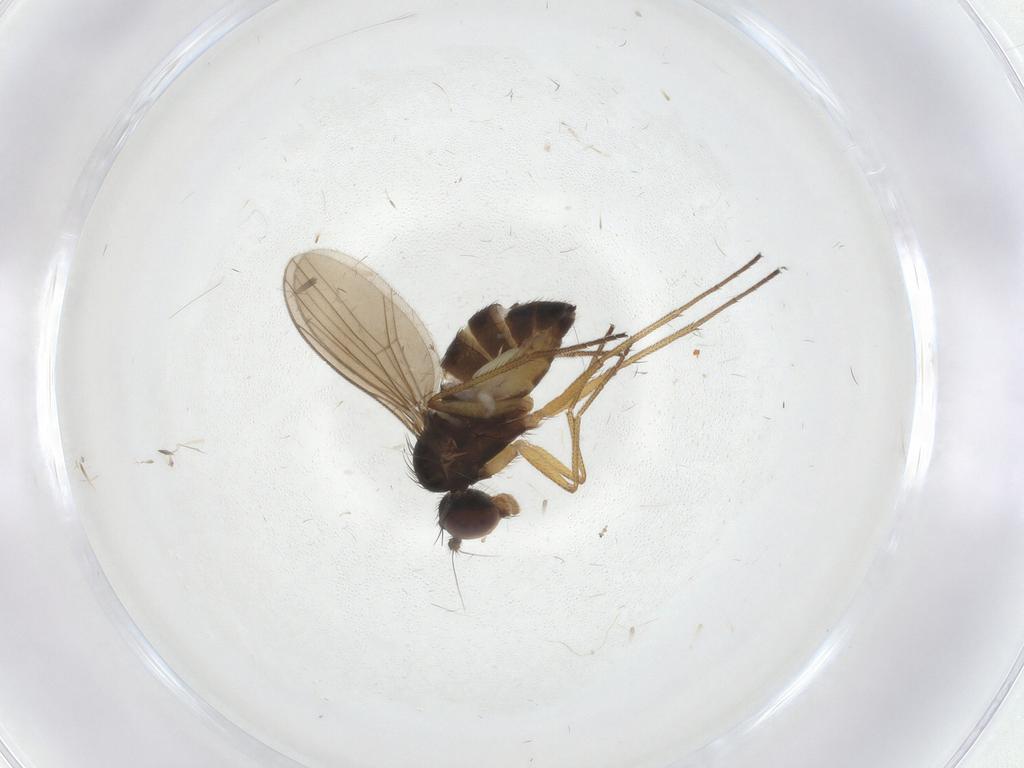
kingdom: Animalia
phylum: Arthropoda
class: Insecta
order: Diptera
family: Dolichopodidae
